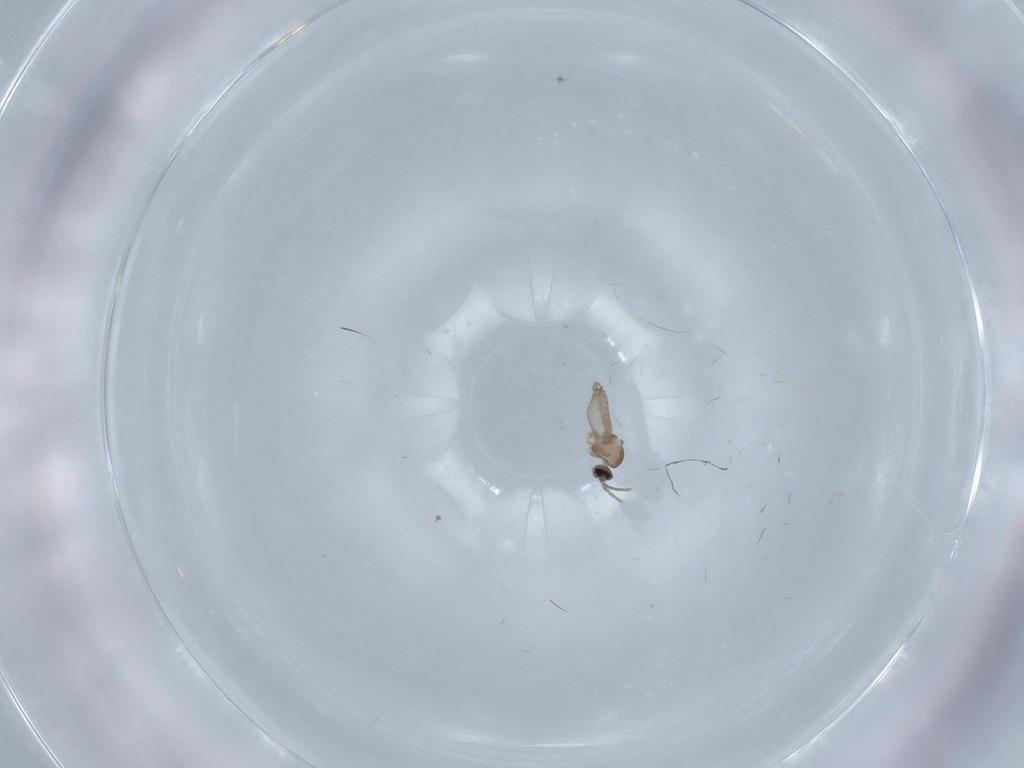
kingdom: Animalia
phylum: Arthropoda
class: Insecta
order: Diptera
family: Cecidomyiidae
